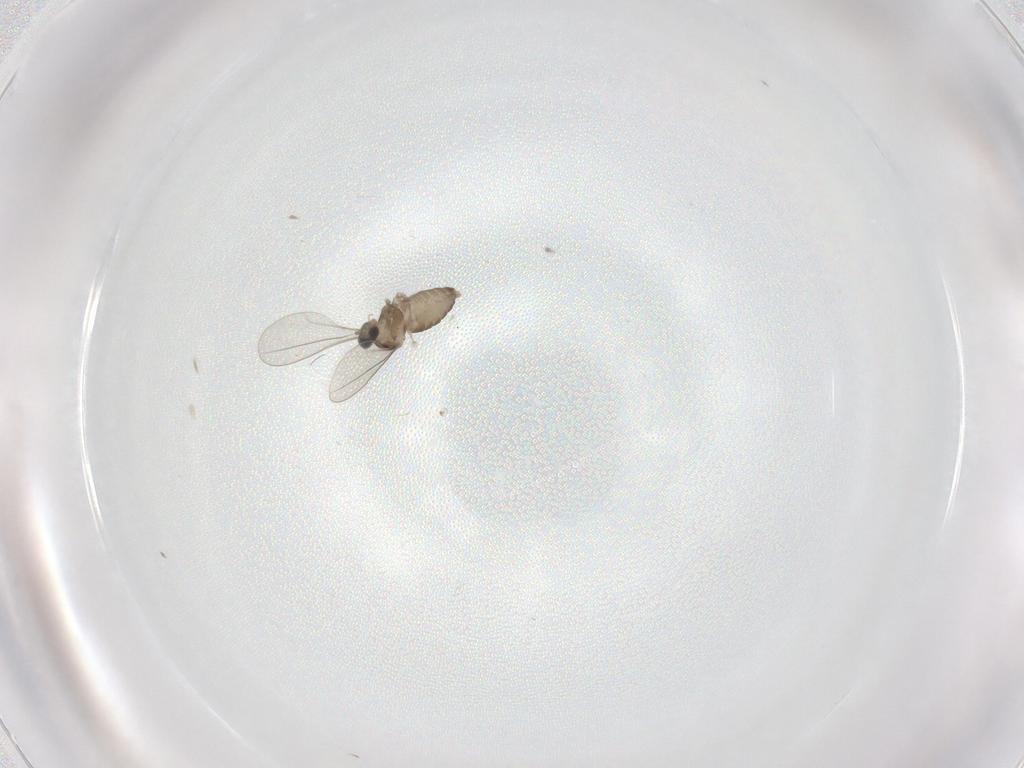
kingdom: Animalia
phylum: Arthropoda
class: Insecta
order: Diptera
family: Cecidomyiidae
